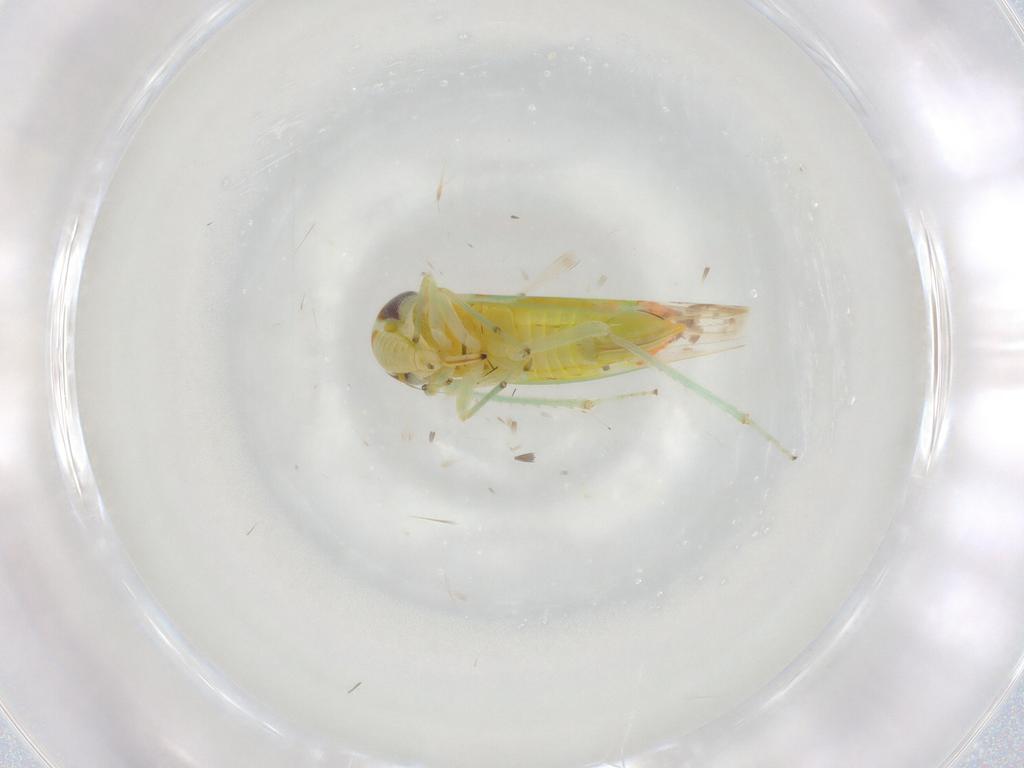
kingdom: Animalia
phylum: Arthropoda
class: Insecta
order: Hemiptera
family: Cicadellidae
